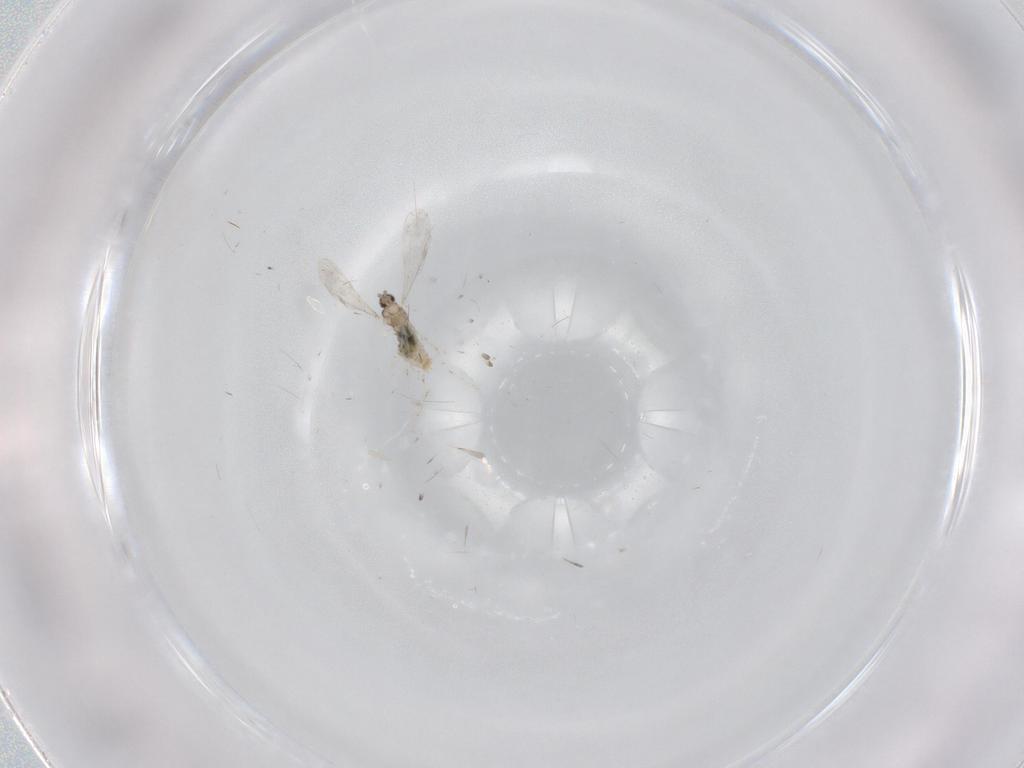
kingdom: Animalia
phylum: Arthropoda
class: Insecta
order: Diptera
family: Cecidomyiidae
